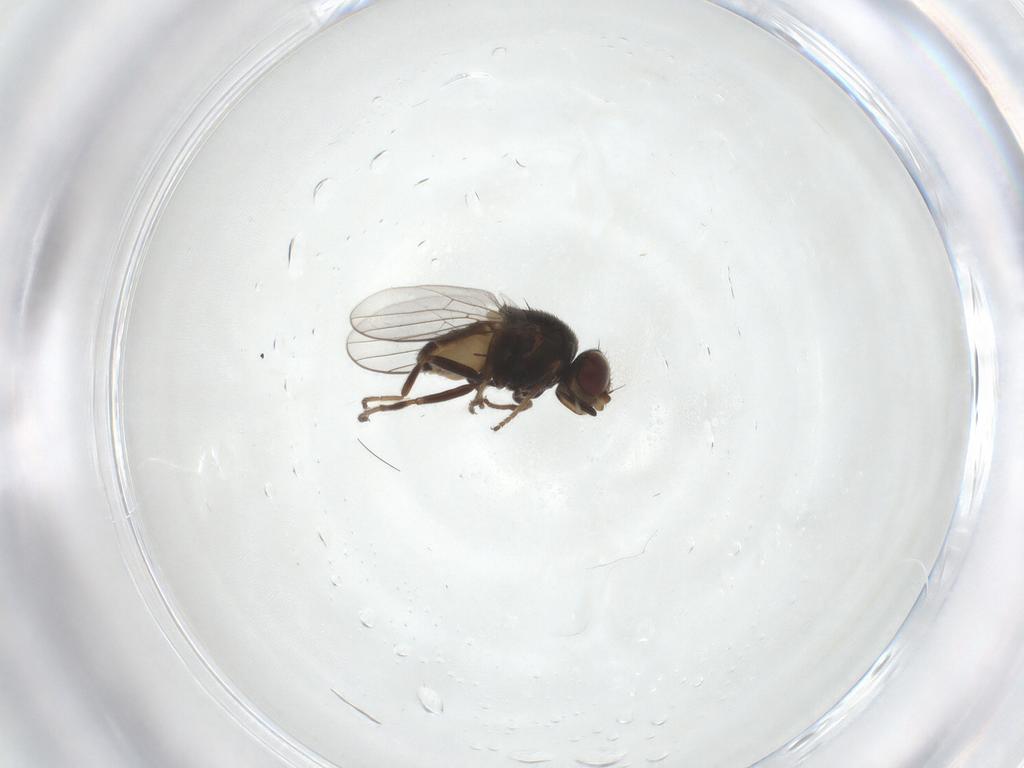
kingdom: Animalia
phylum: Arthropoda
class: Insecta
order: Diptera
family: Chloropidae
